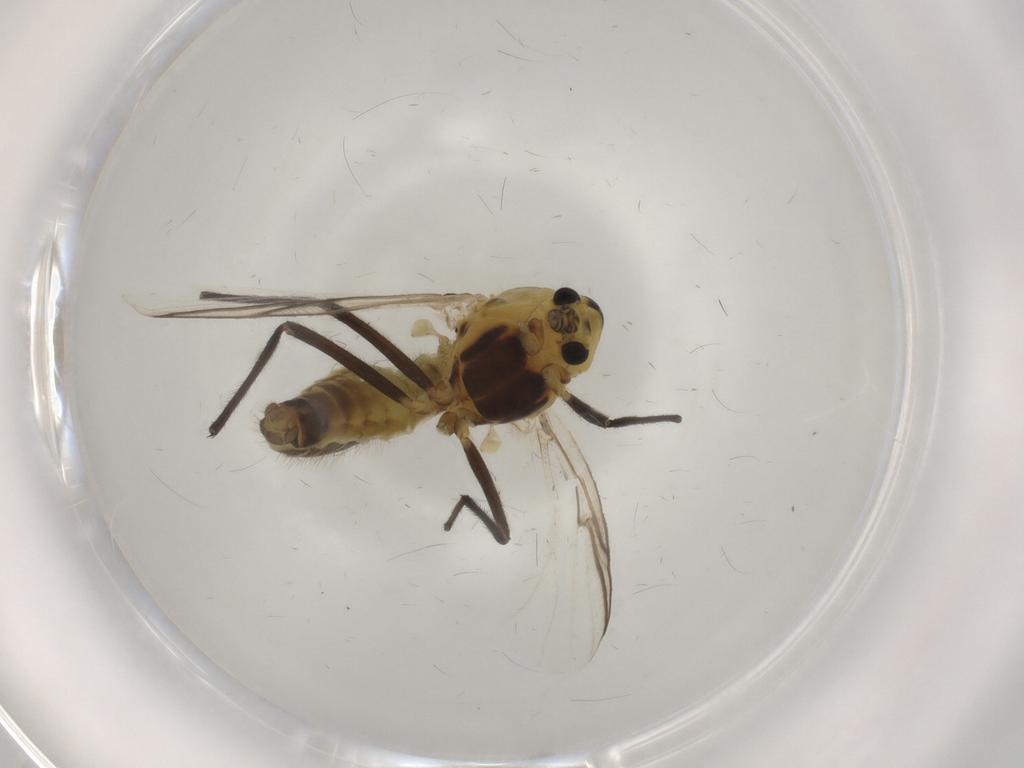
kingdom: Animalia
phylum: Arthropoda
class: Insecta
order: Diptera
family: Chironomidae
